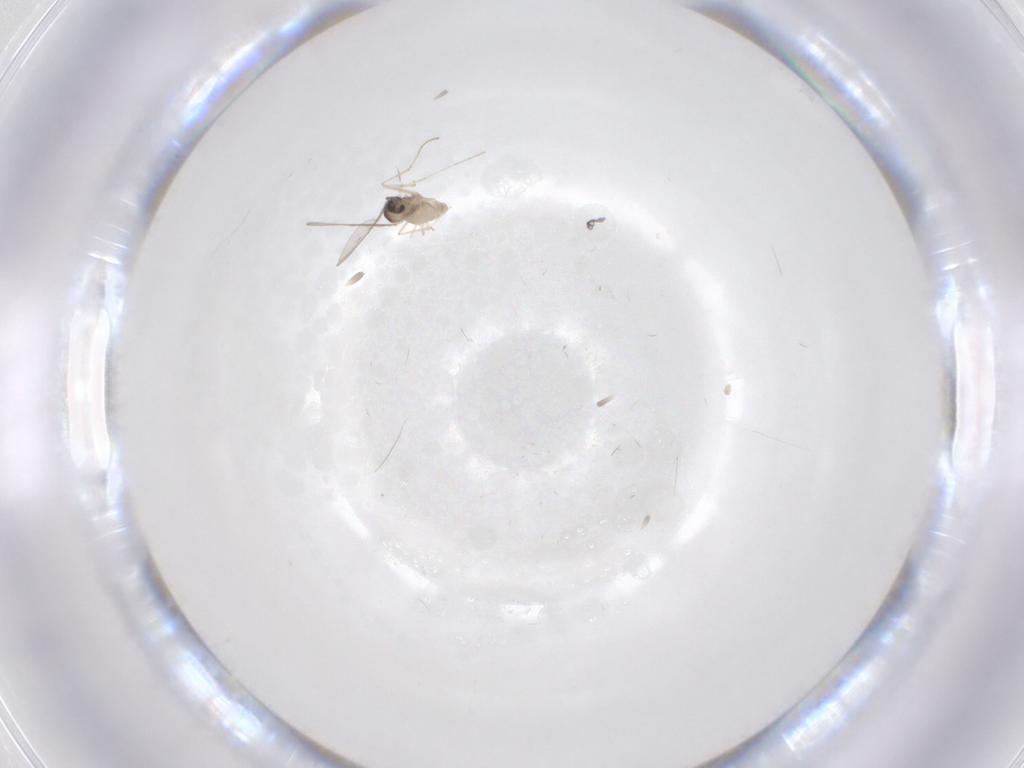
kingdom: Animalia
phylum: Arthropoda
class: Insecta
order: Diptera
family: Cecidomyiidae
